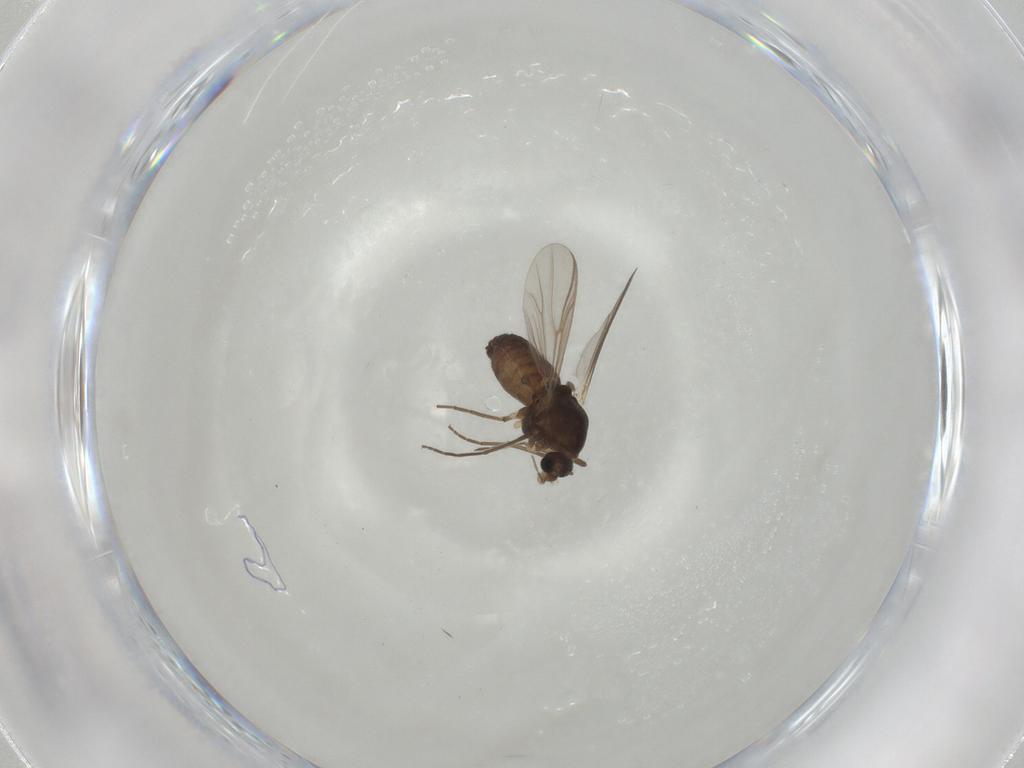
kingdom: Animalia
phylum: Arthropoda
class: Insecta
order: Diptera
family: Chironomidae
